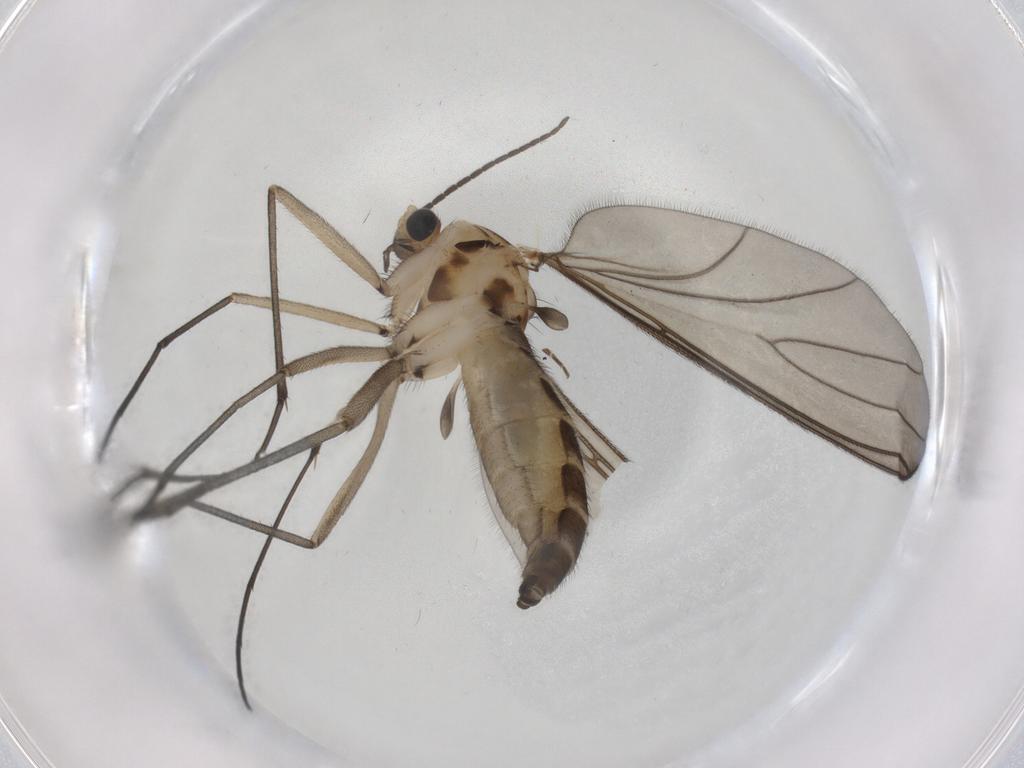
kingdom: Animalia
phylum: Arthropoda
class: Insecta
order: Diptera
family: Sciaridae
